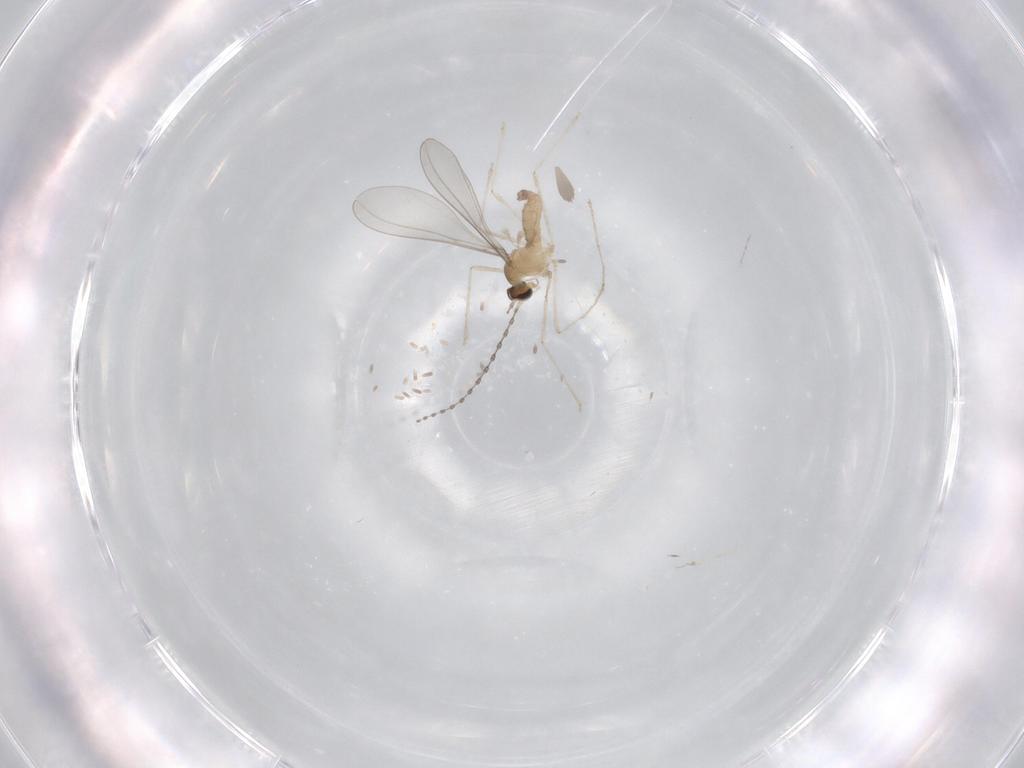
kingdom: Animalia
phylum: Arthropoda
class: Insecta
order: Diptera
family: Cecidomyiidae
